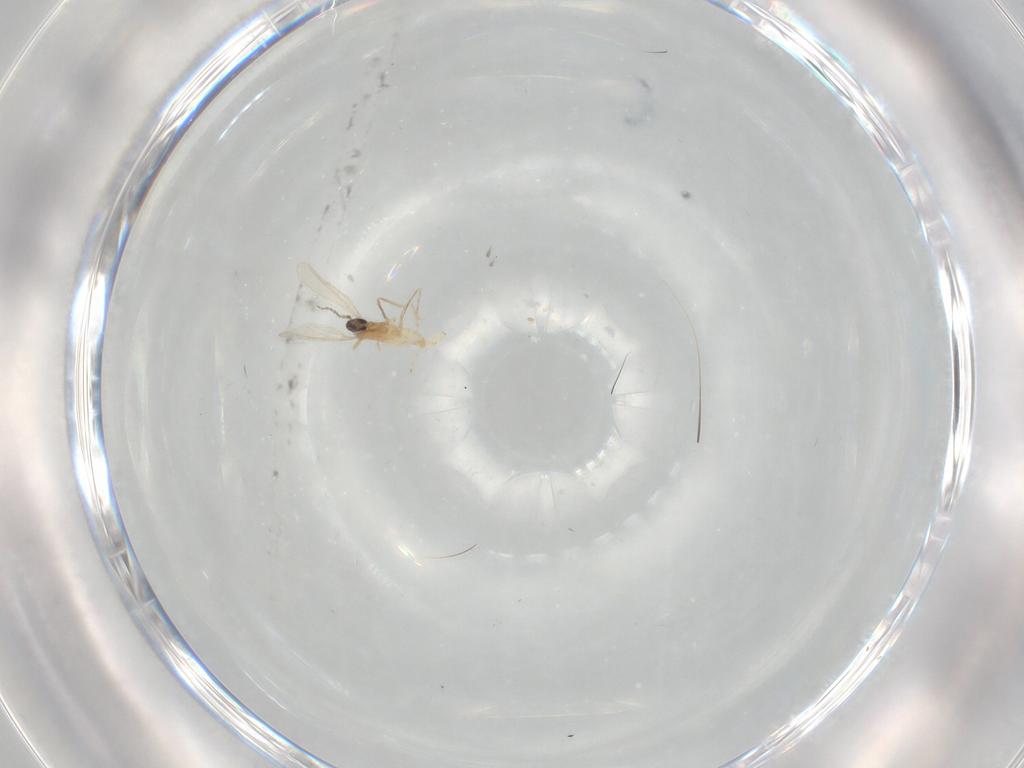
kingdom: Animalia
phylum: Arthropoda
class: Insecta
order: Diptera
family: Cecidomyiidae
